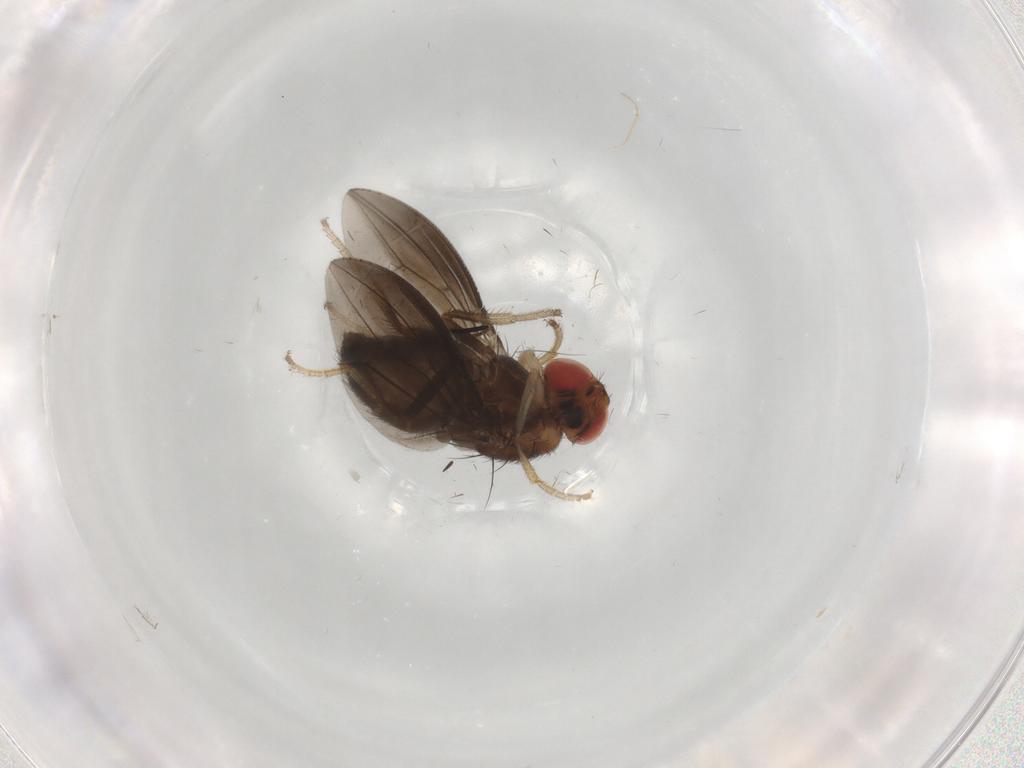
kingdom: Animalia
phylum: Arthropoda
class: Insecta
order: Diptera
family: Drosophilidae
